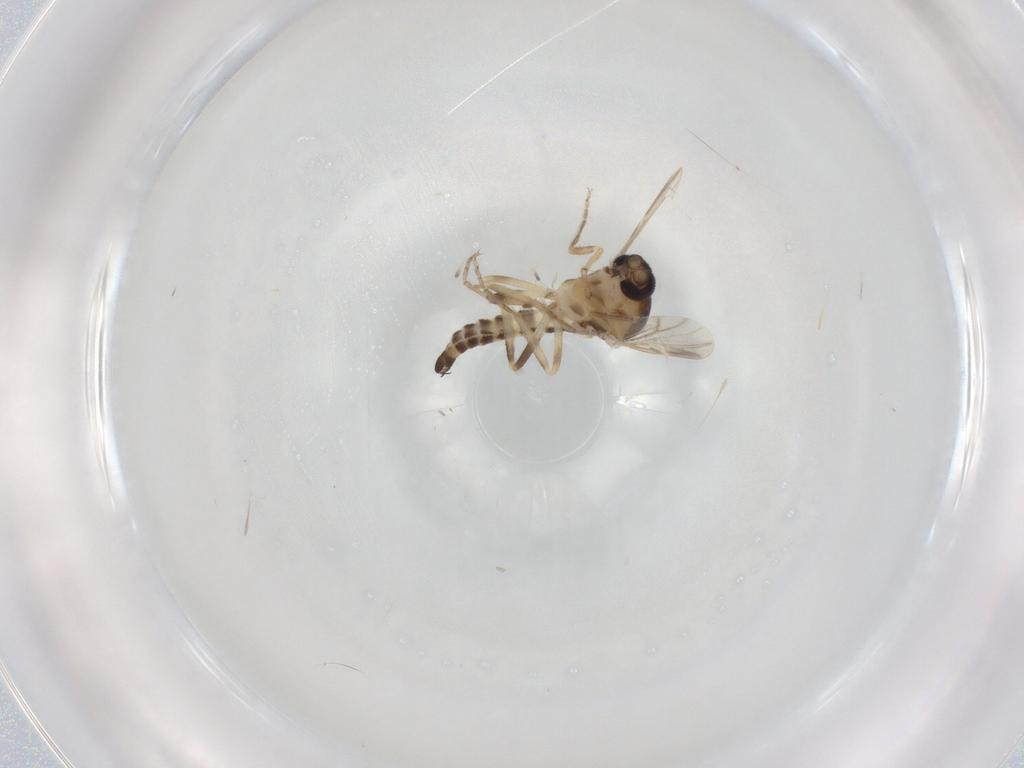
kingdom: Animalia
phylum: Arthropoda
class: Insecta
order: Diptera
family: Ceratopogonidae
